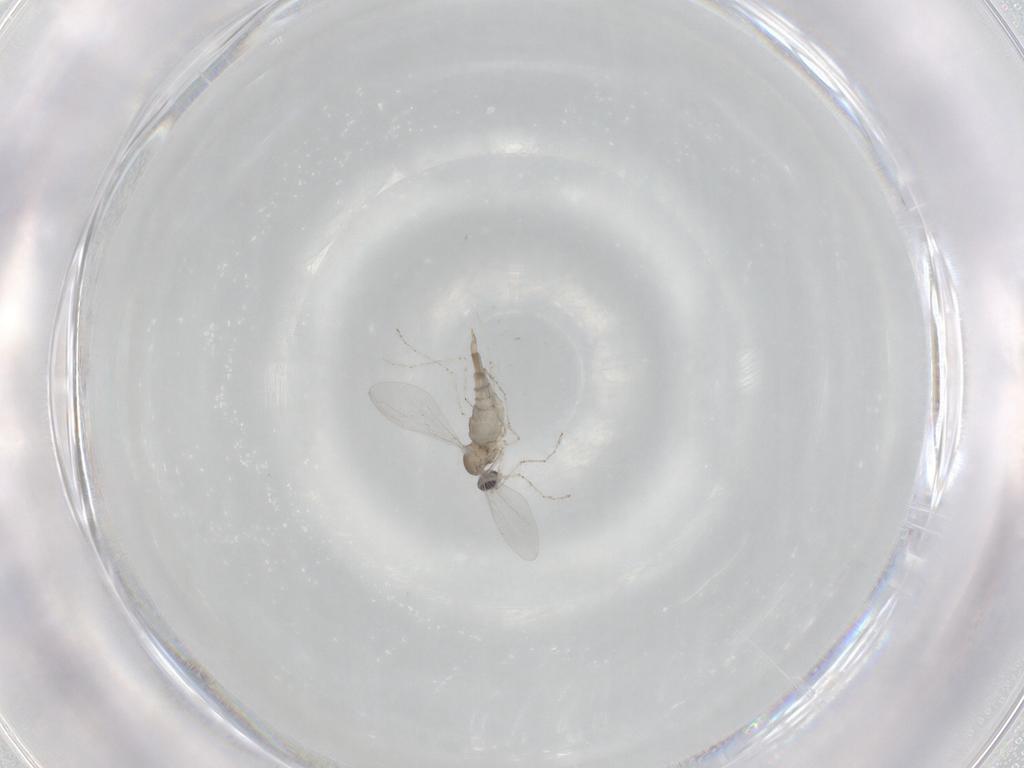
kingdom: Animalia
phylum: Arthropoda
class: Insecta
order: Diptera
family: Cecidomyiidae
